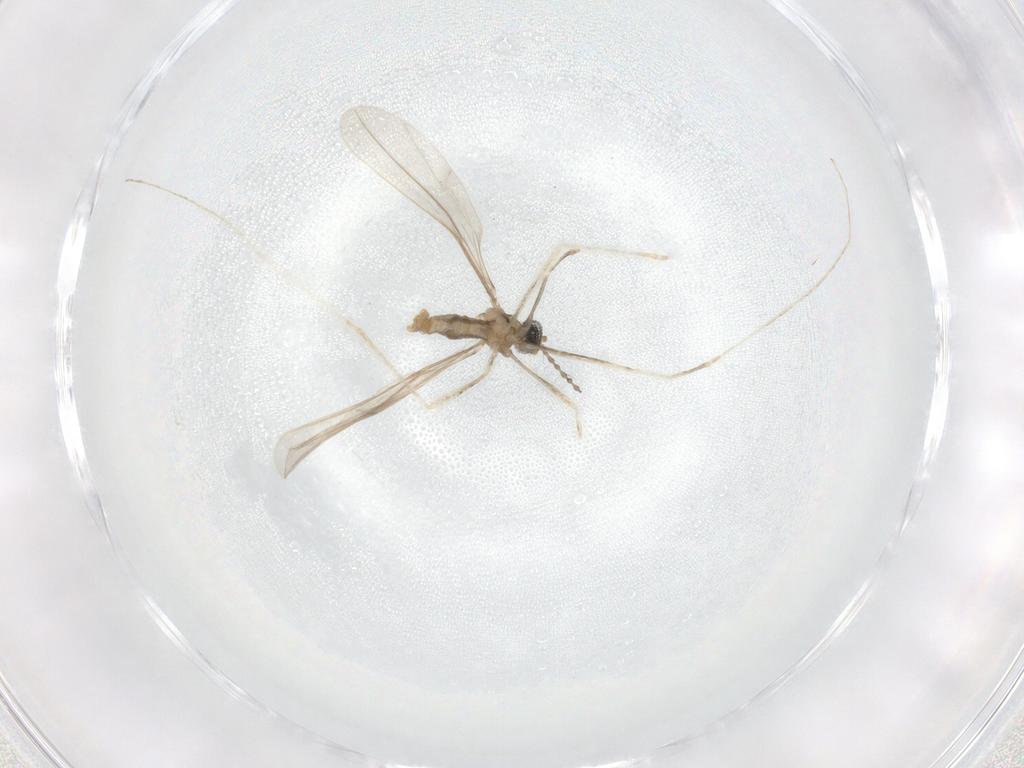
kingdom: Animalia
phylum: Arthropoda
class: Insecta
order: Diptera
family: Cecidomyiidae
